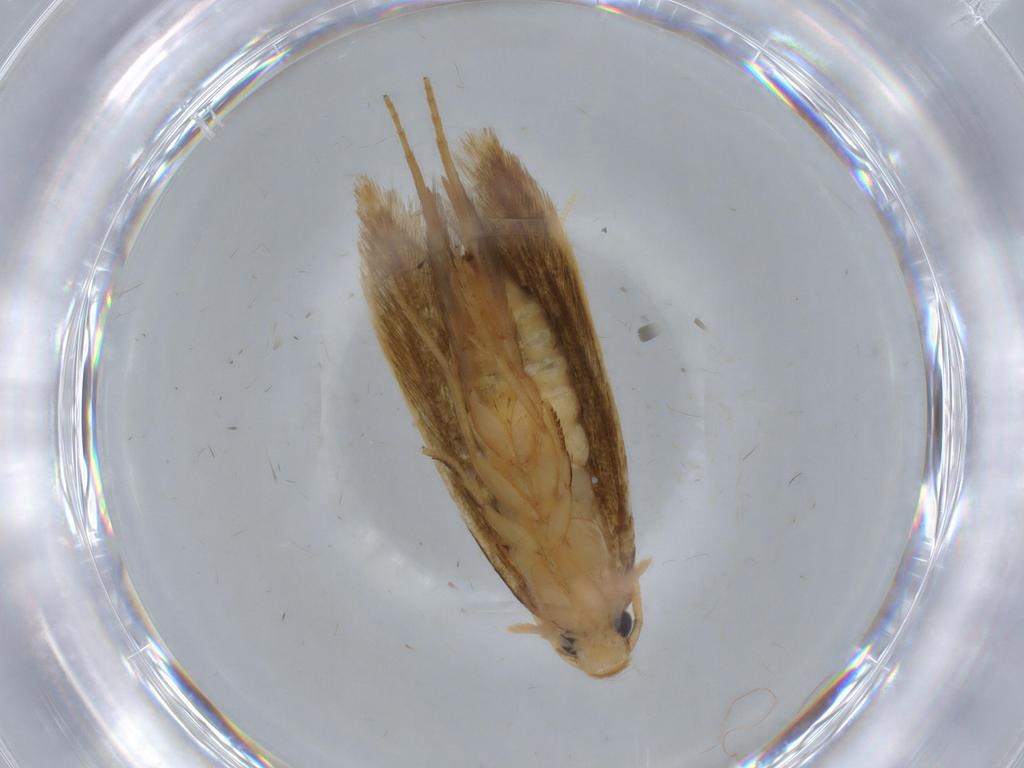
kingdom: Animalia
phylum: Arthropoda
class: Insecta
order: Lepidoptera
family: Tineidae
